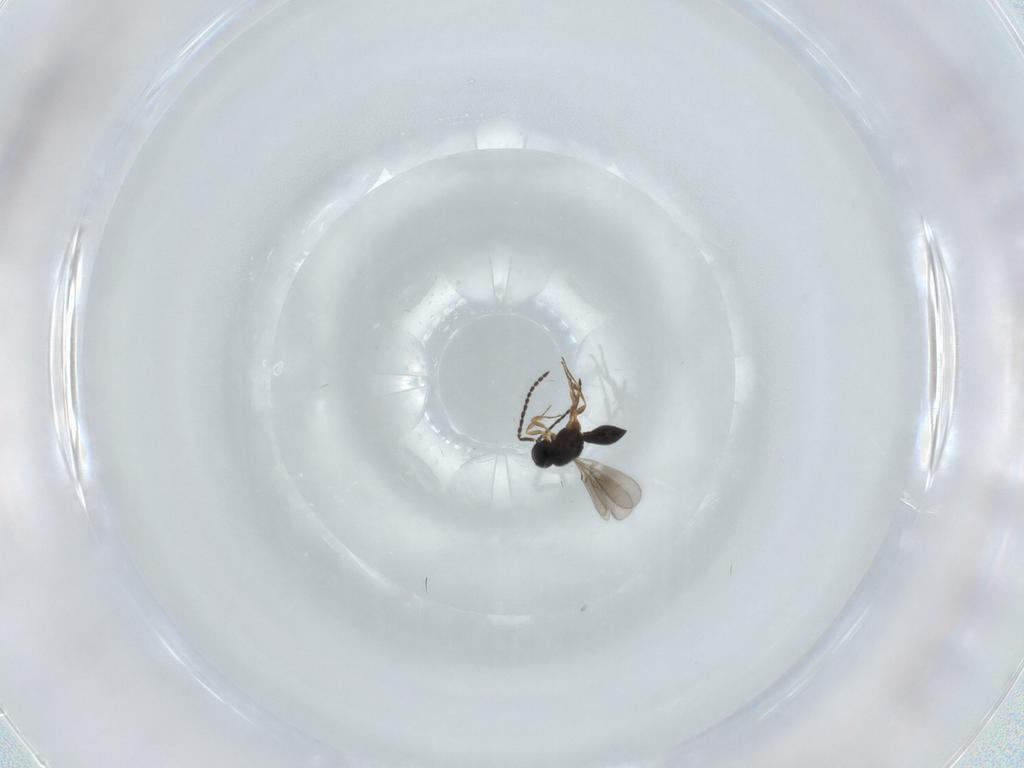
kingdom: Animalia
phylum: Arthropoda
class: Insecta
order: Hymenoptera
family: Scelionidae
